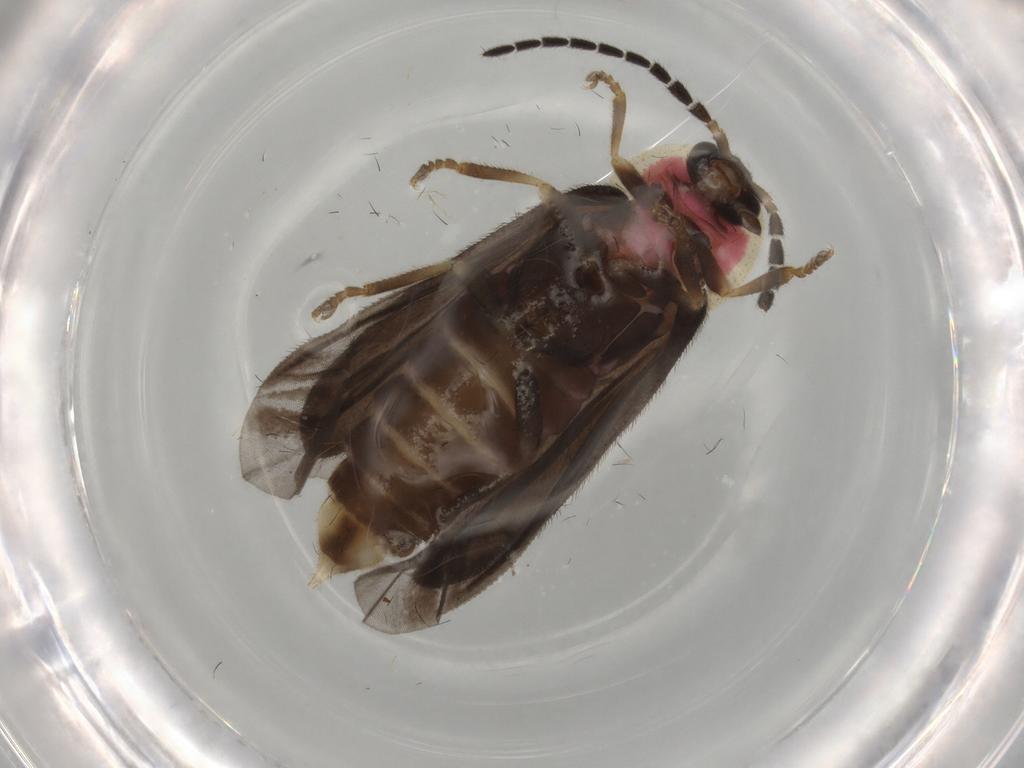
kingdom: Animalia
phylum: Arthropoda
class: Insecta
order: Coleoptera
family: Lampyridae
